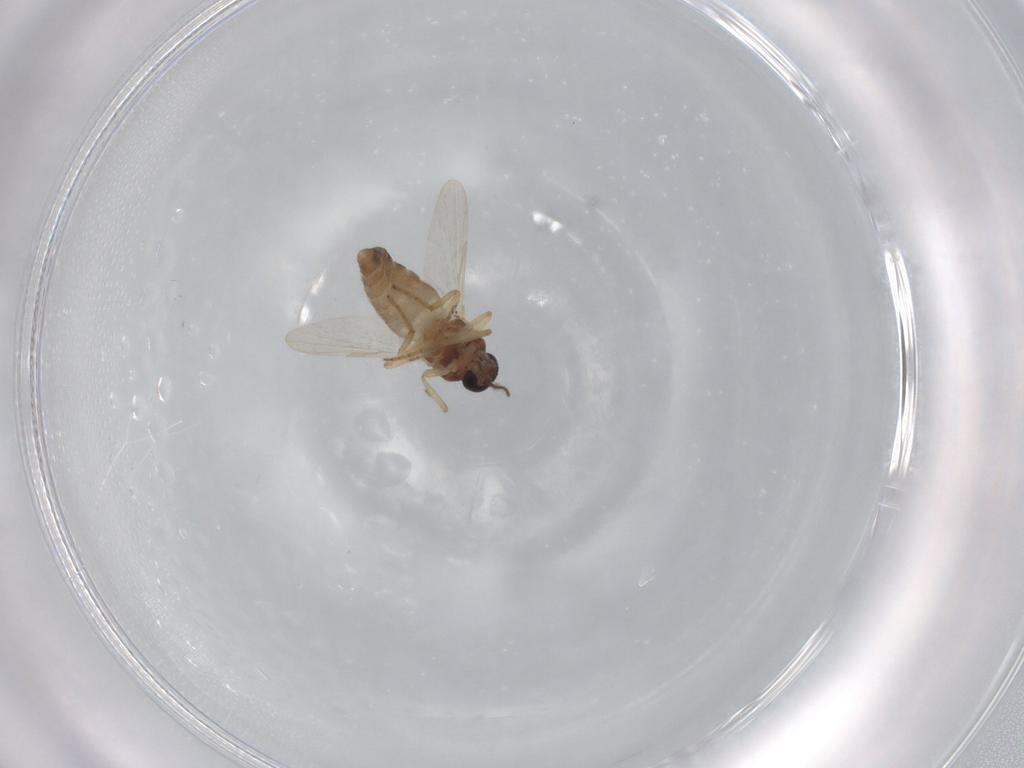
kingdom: Animalia
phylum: Arthropoda
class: Insecta
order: Diptera
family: Ceratopogonidae
